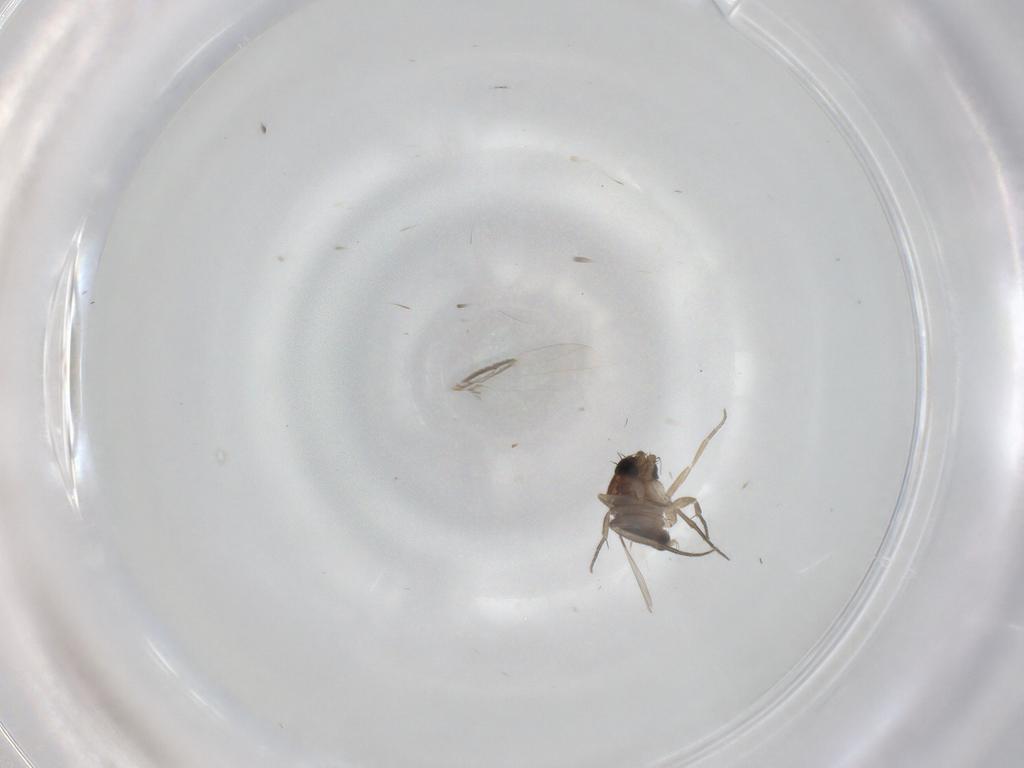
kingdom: Animalia
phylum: Arthropoda
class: Insecta
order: Diptera
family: Phoridae
